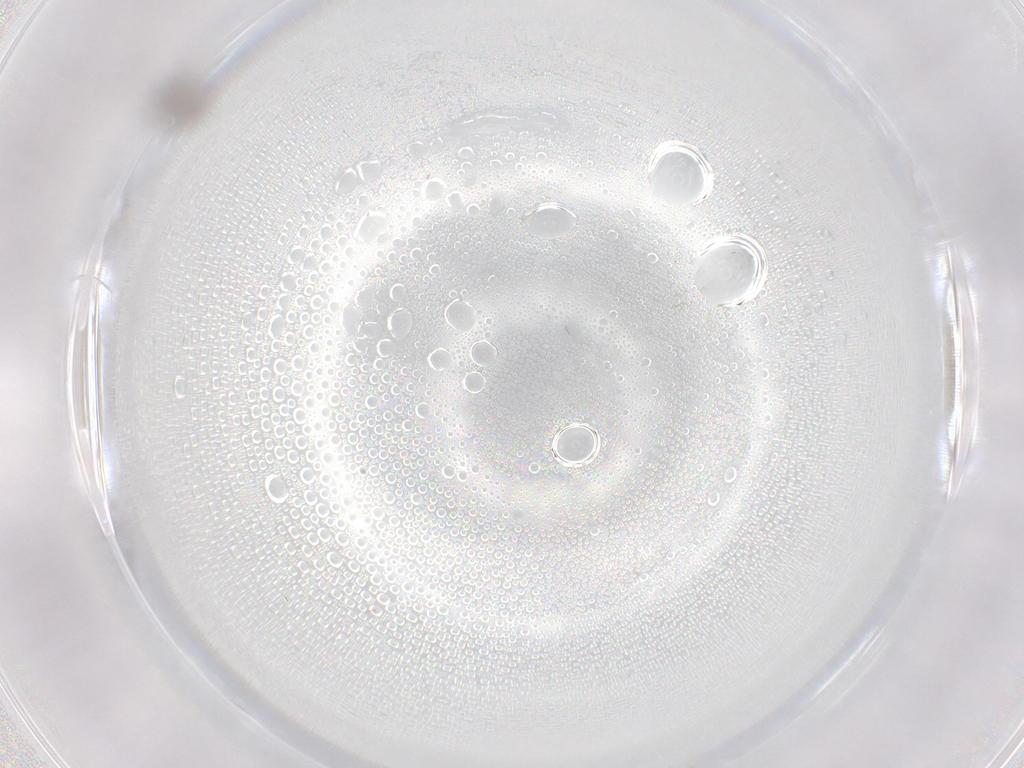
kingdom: Animalia
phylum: Arthropoda
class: Insecta
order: Diptera
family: Cecidomyiidae
